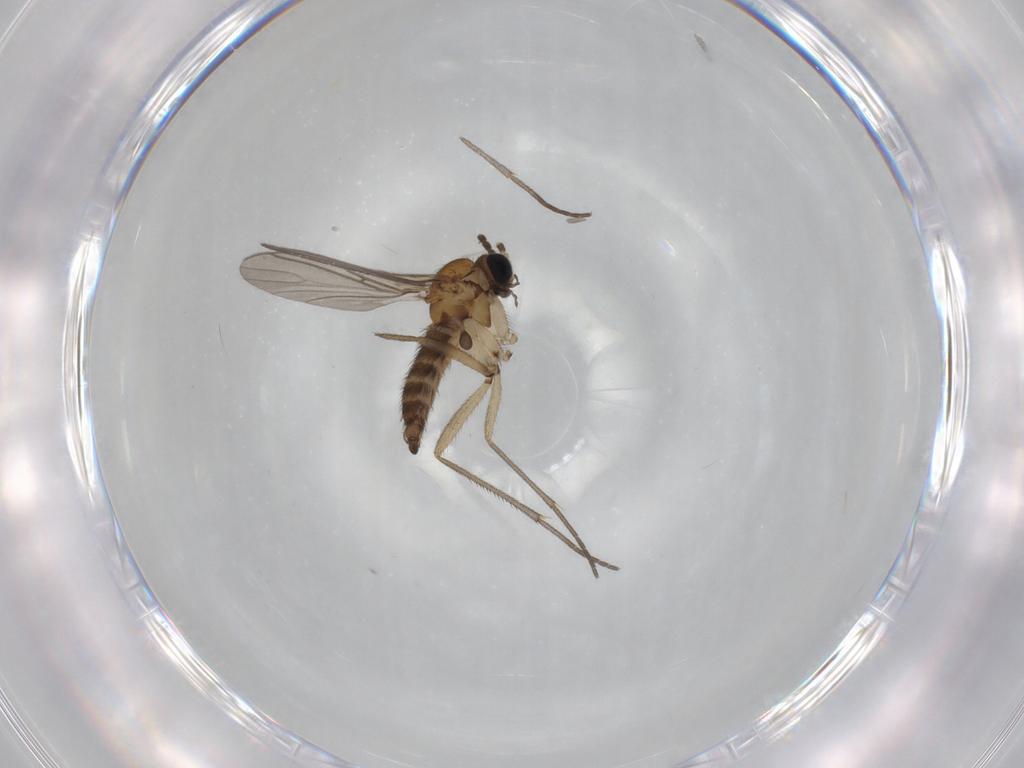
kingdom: Animalia
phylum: Arthropoda
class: Insecta
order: Diptera
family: Sciaridae
